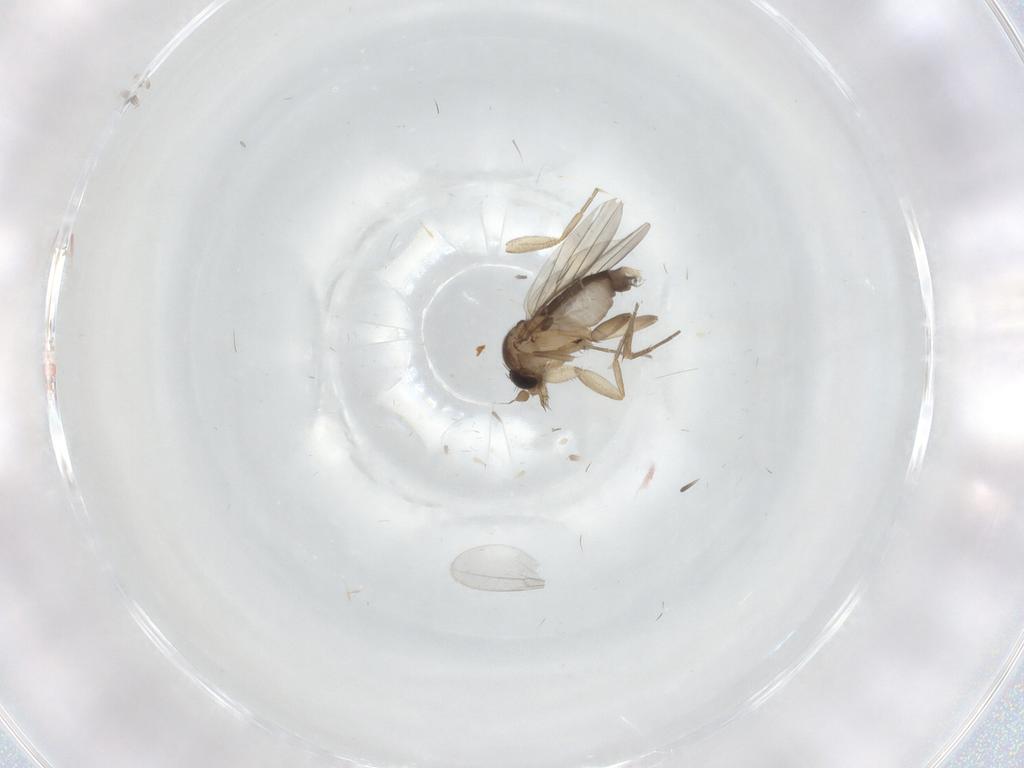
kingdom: Animalia
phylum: Arthropoda
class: Insecta
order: Diptera
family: Phoridae
